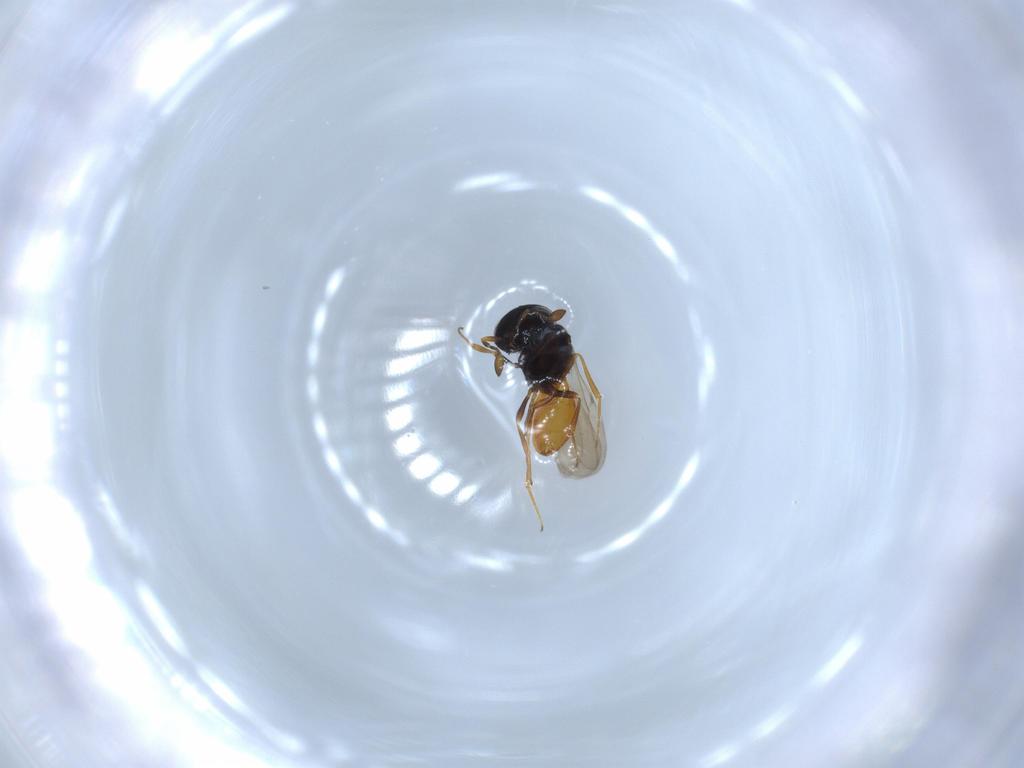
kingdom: Animalia
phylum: Arthropoda
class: Insecta
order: Hymenoptera
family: Scelionidae
